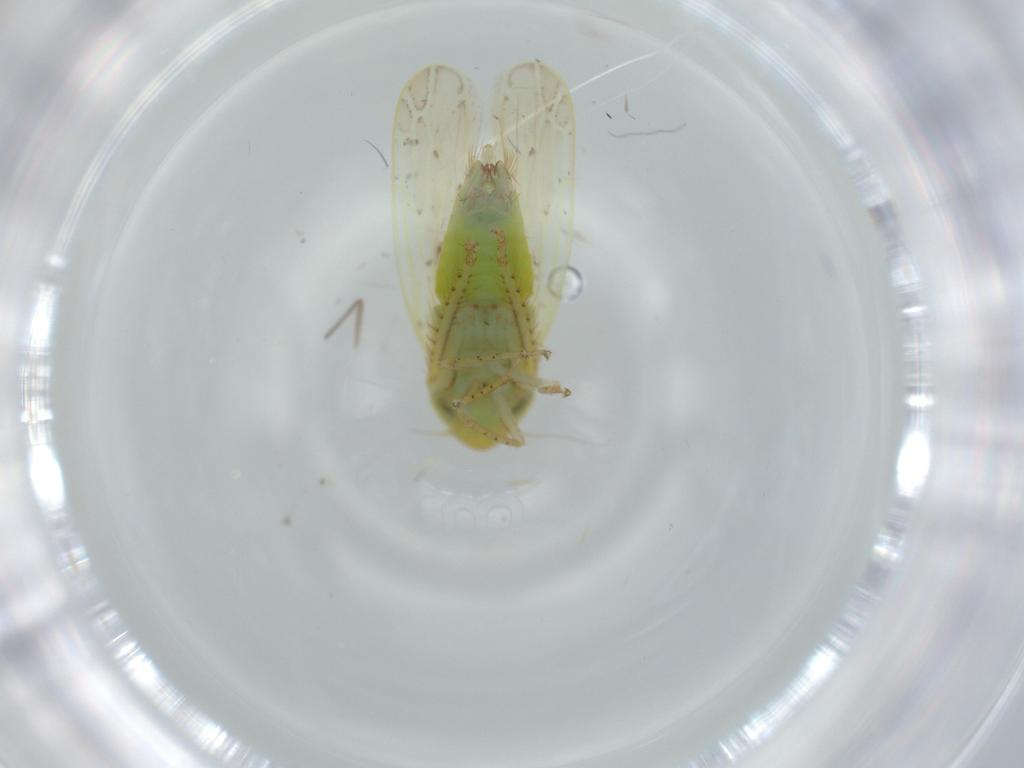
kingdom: Animalia
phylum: Arthropoda
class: Insecta
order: Hemiptera
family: Cicadellidae
